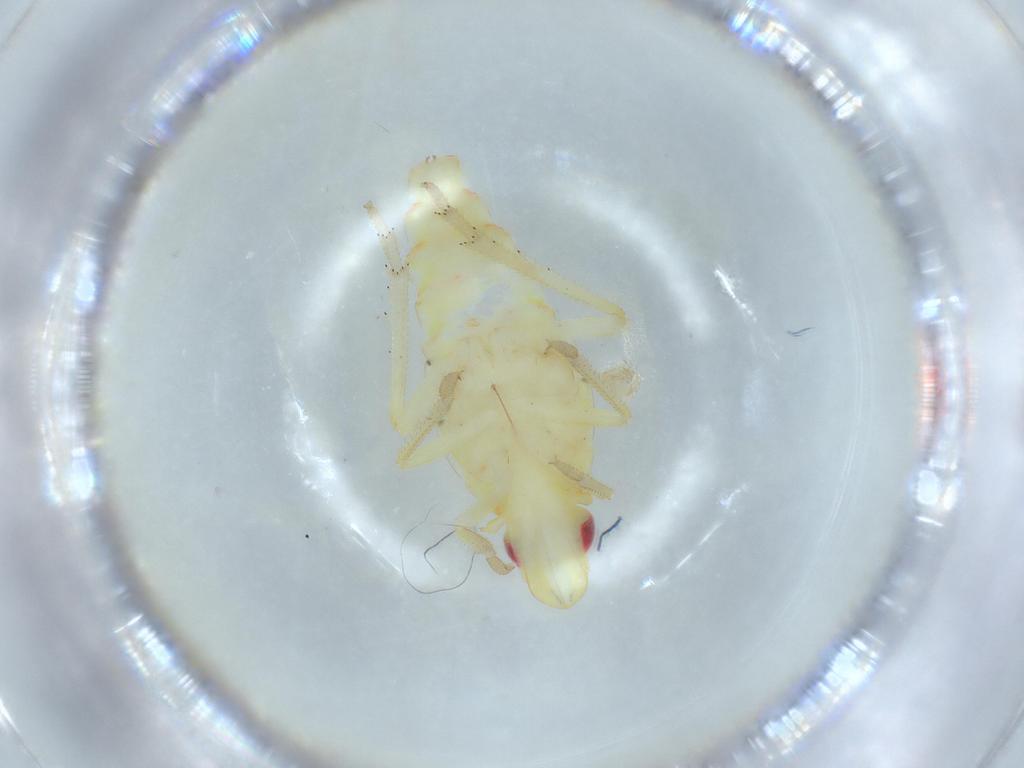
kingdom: Animalia
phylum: Arthropoda
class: Insecta
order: Hemiptera
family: Tropiduchidae
